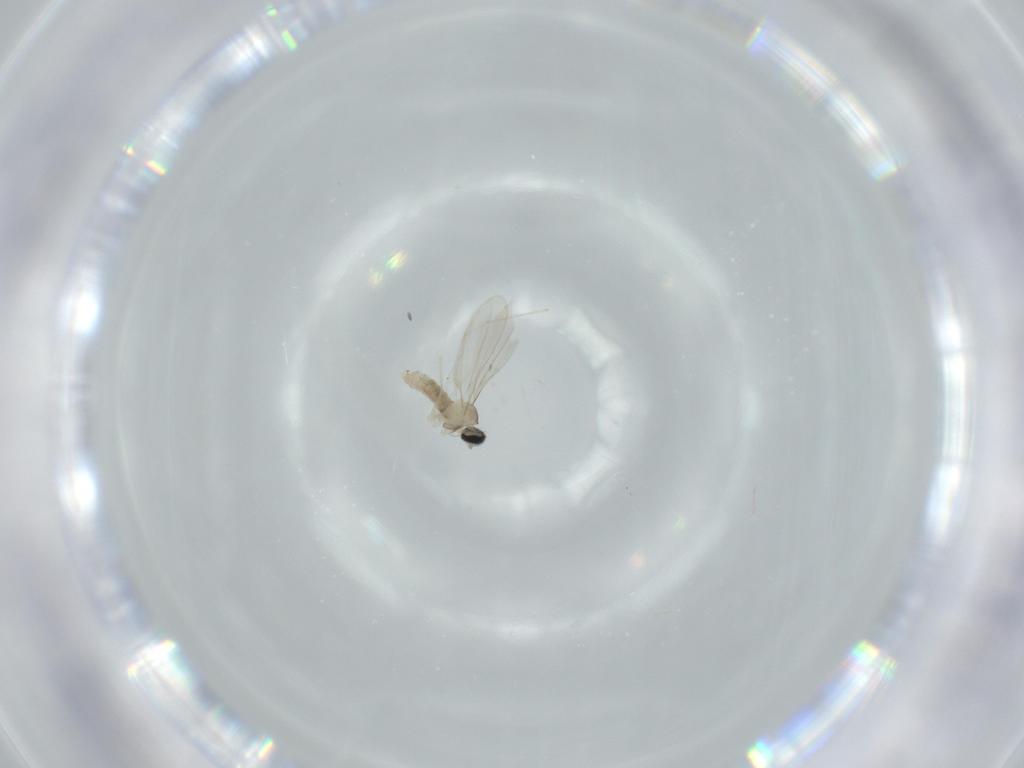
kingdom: Animalia
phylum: Arthropoda
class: Insecta
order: Diptera
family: Cecidomyiidae
